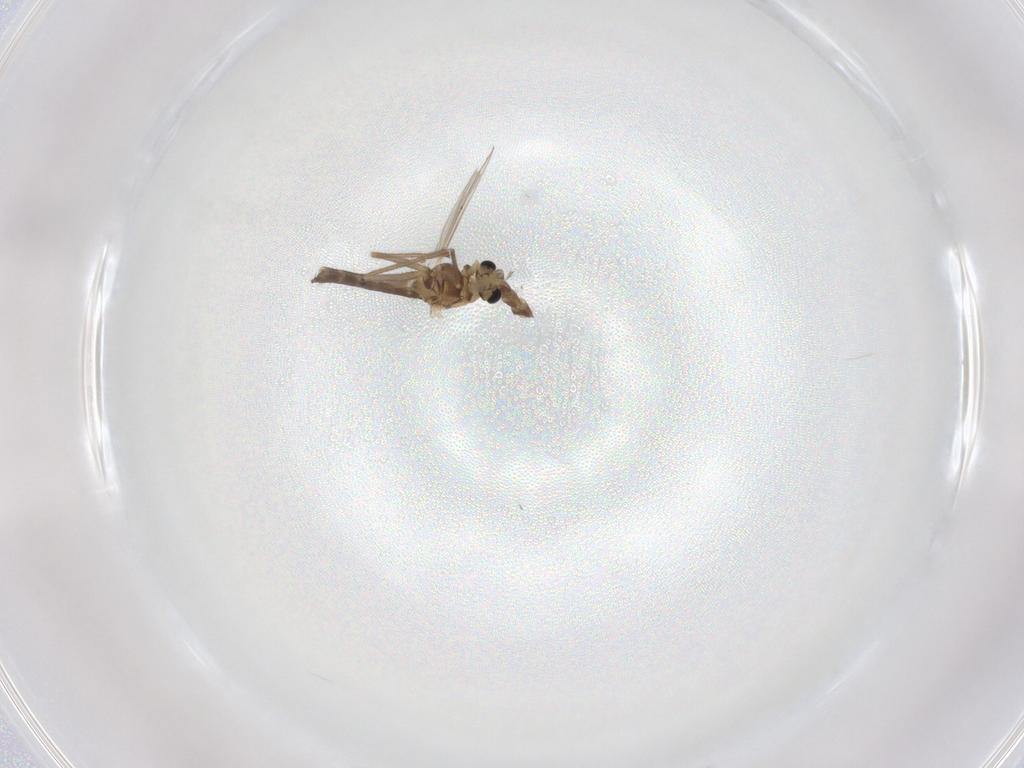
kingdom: Animalia
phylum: Arthropoda
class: Insecta
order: Diptera
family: Chironomidae
